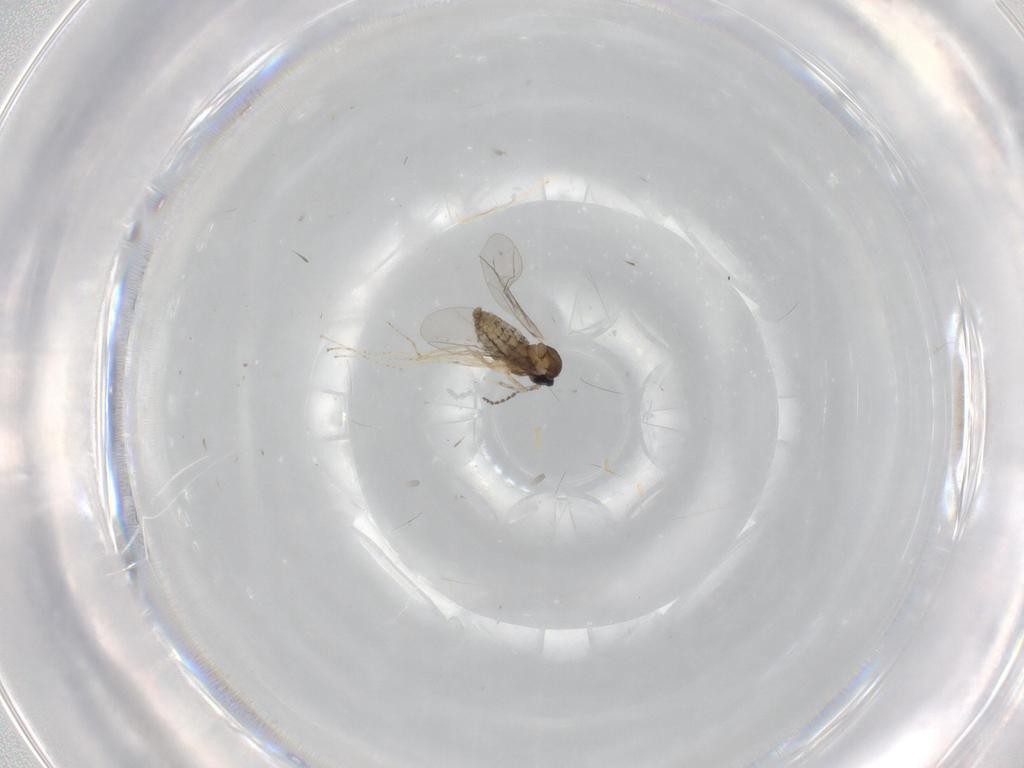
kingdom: Animalia
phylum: Arthropoda
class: Insecta
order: Diptera
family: Cecidomyiidae
